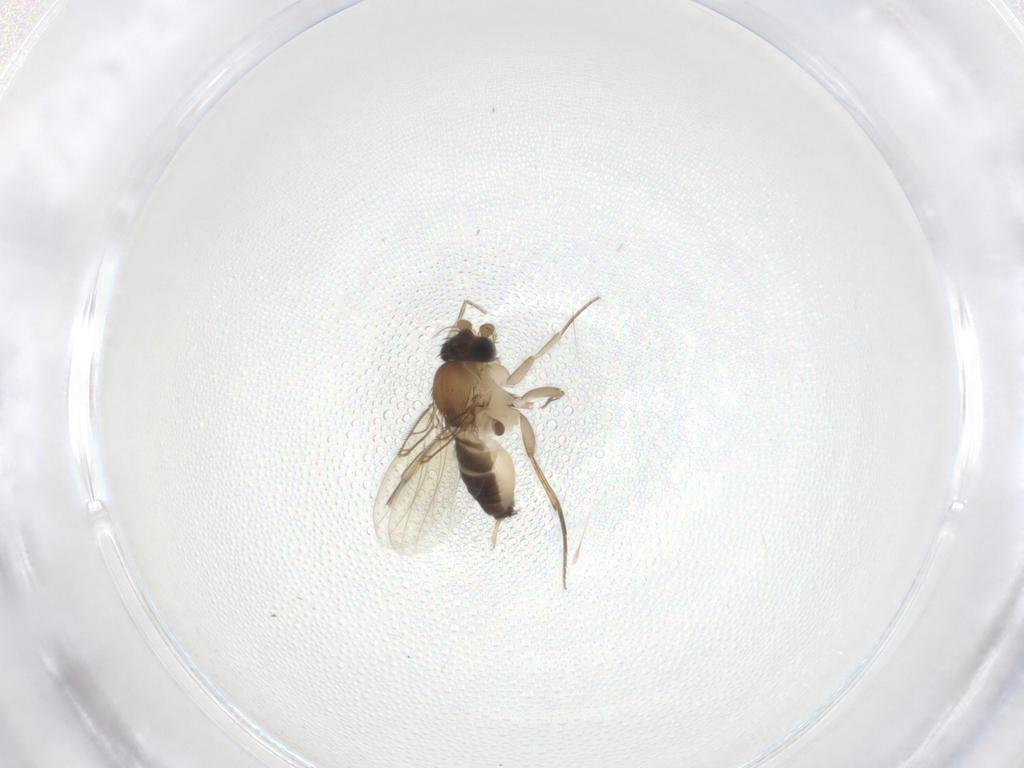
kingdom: Animalia
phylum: Arthropoda
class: Insecta
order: Diptera
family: Phoridae
